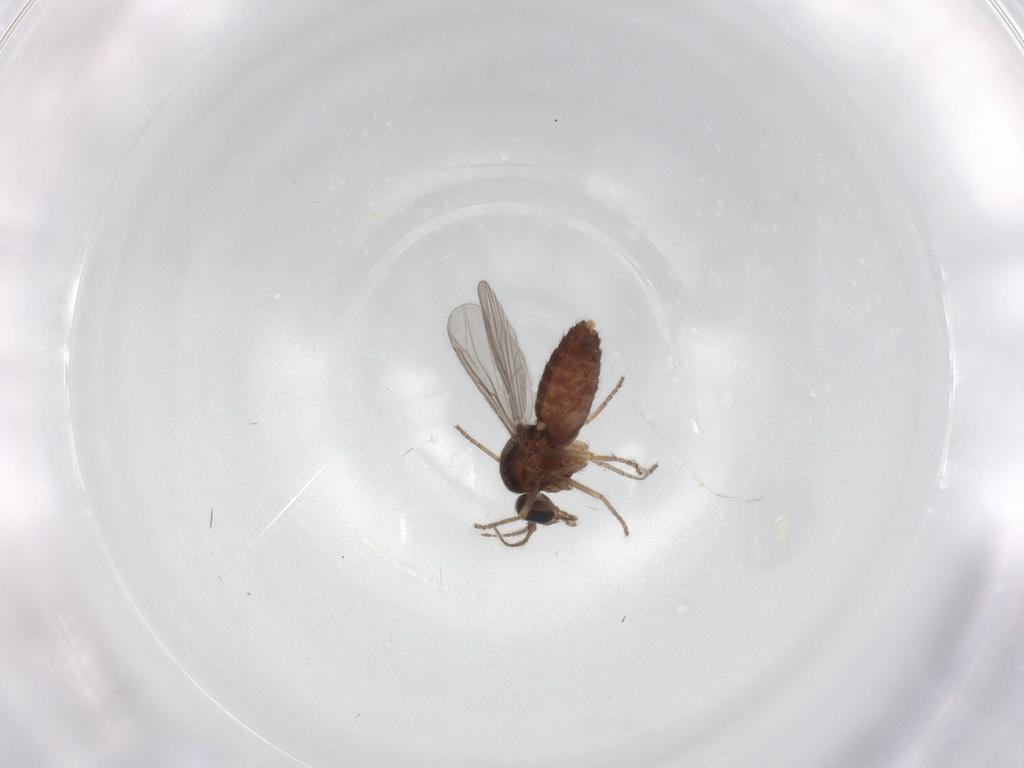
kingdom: Animalia
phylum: Arthropoda
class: Insecta
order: Diptera
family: Ceratopogonidae
